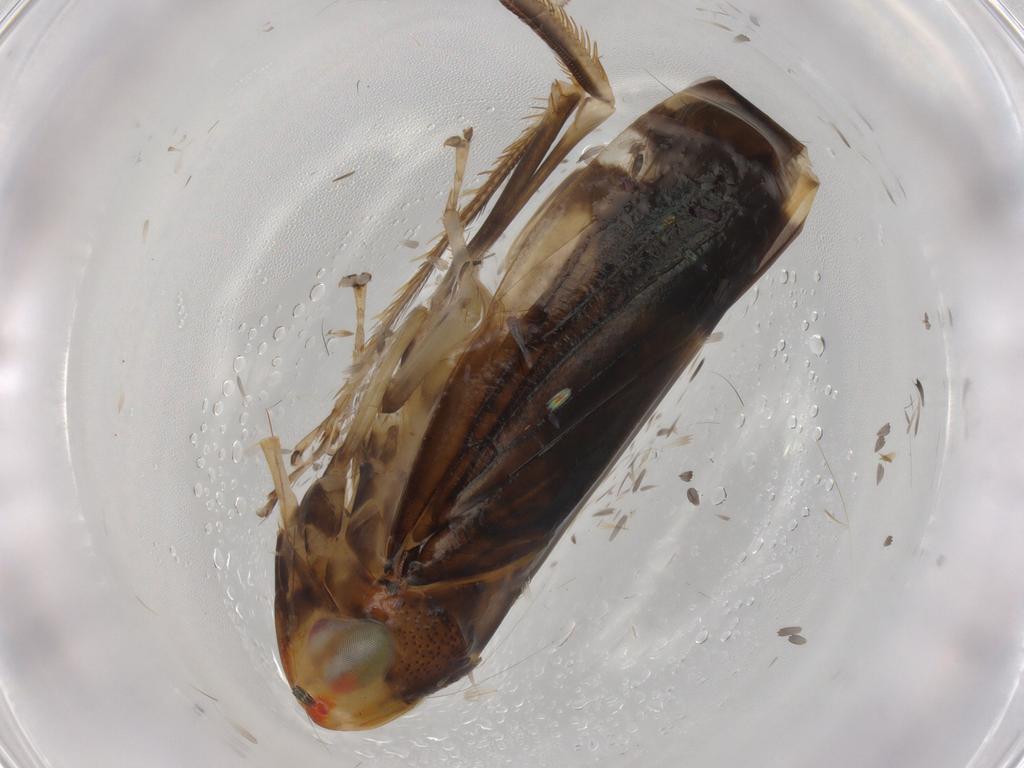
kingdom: Animalia
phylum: Arthropoda
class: Insecta
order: Hemiptera
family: Cicadellidae
